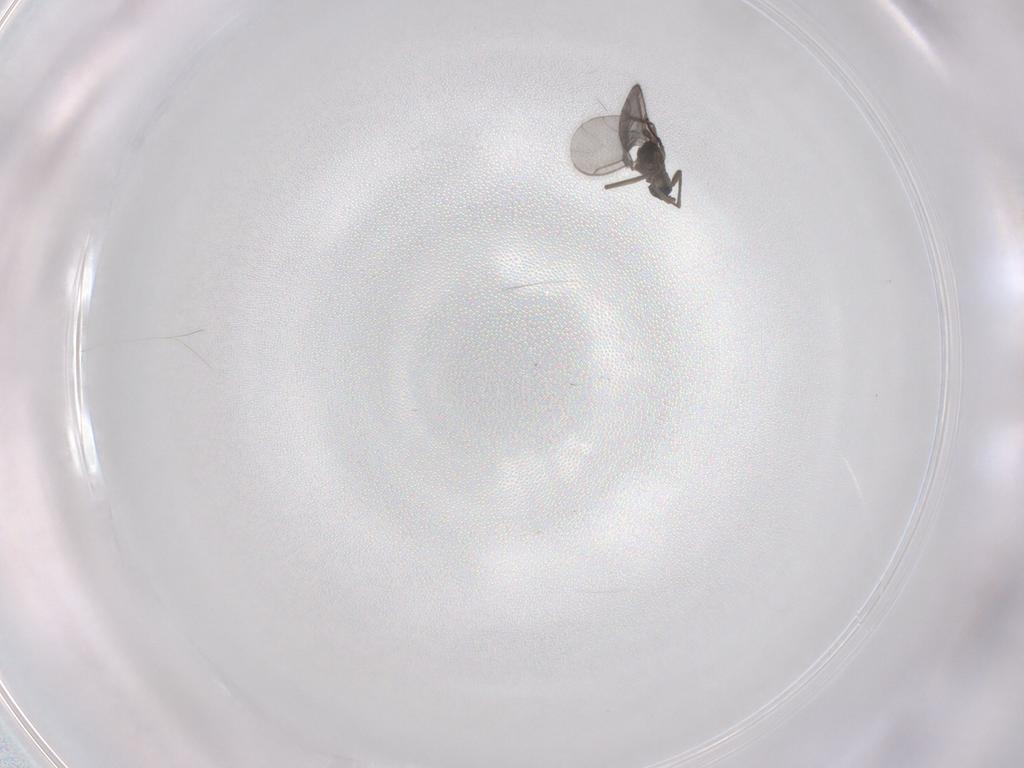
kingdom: Animalia
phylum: Arthropoda
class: Insecta
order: Diptera
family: Sciaridae
